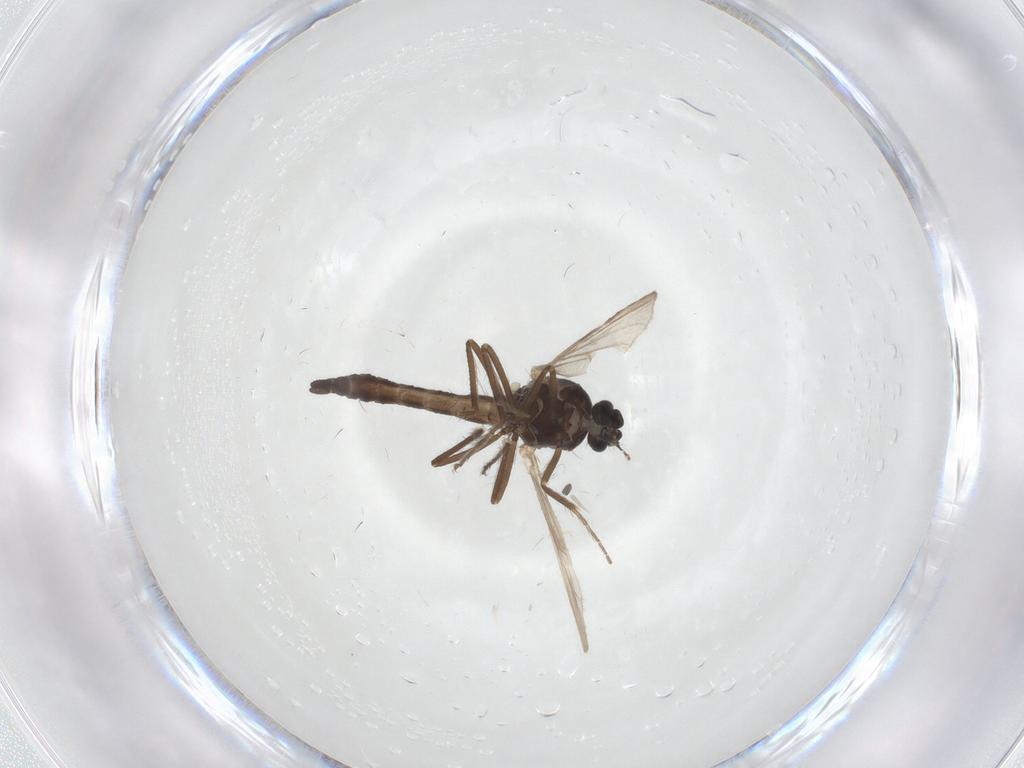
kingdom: Animalia
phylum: Arthropoda
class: Insecta
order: Diptera
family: Ceratopogonidae
